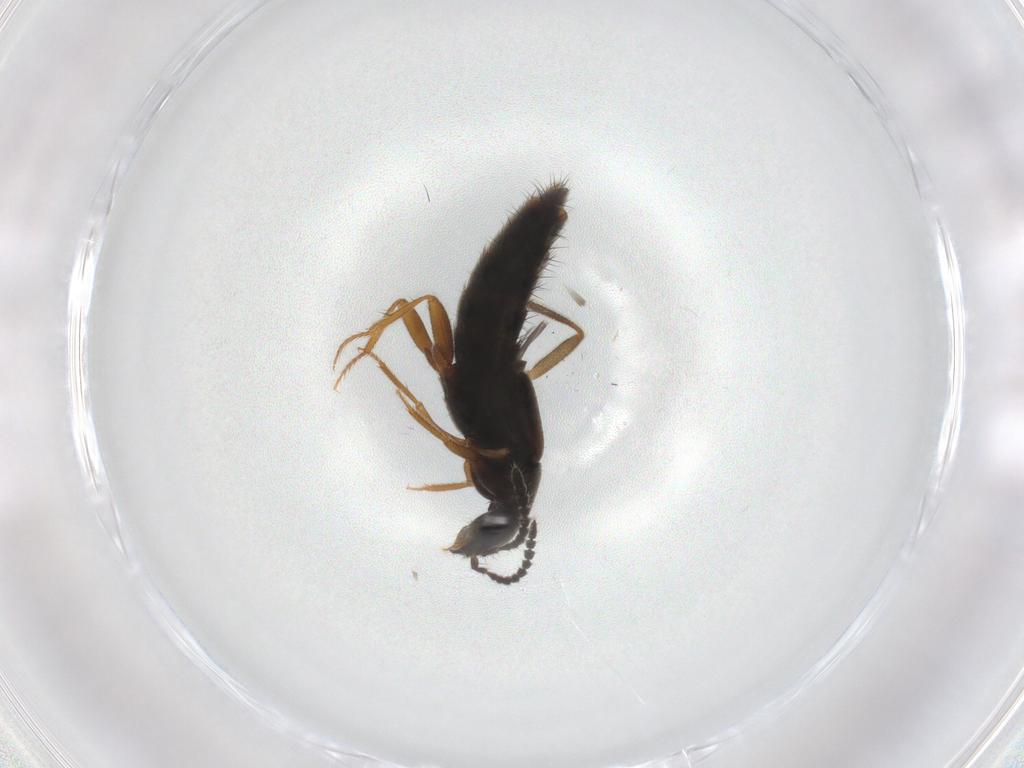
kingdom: Animalia
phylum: Arthropoda
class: Insecta
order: Coleoptera
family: Staphylinidae
